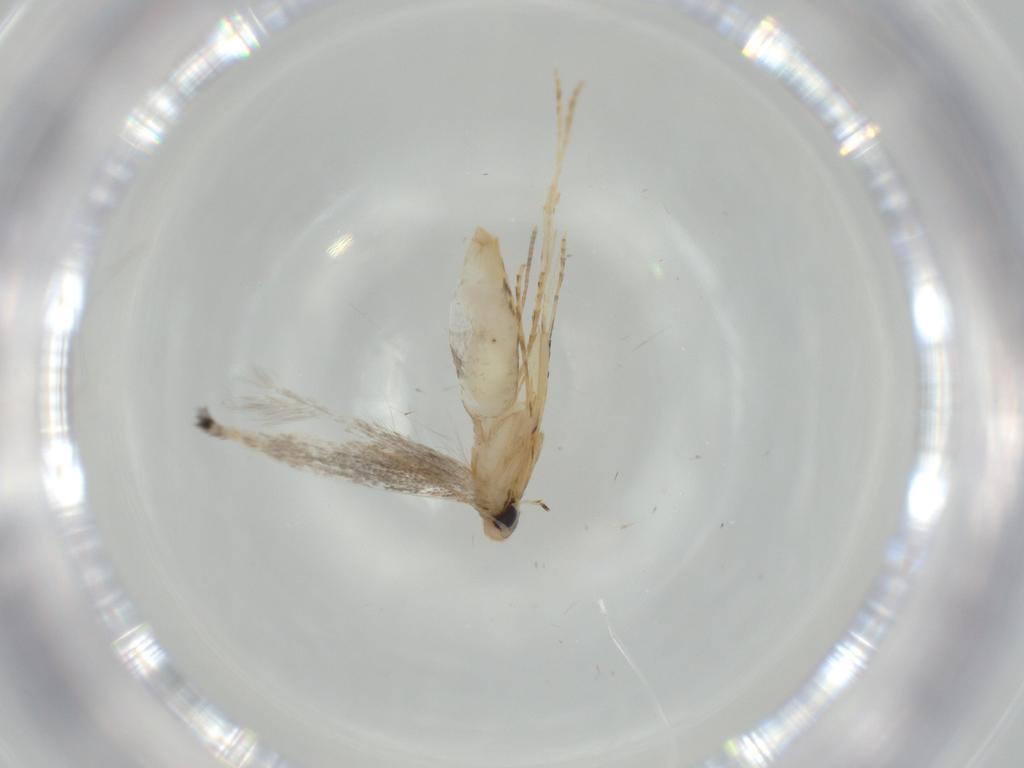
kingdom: Animalia
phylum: Arthropoda
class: Insecta
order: Lepidoptera
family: Gracillariidae
